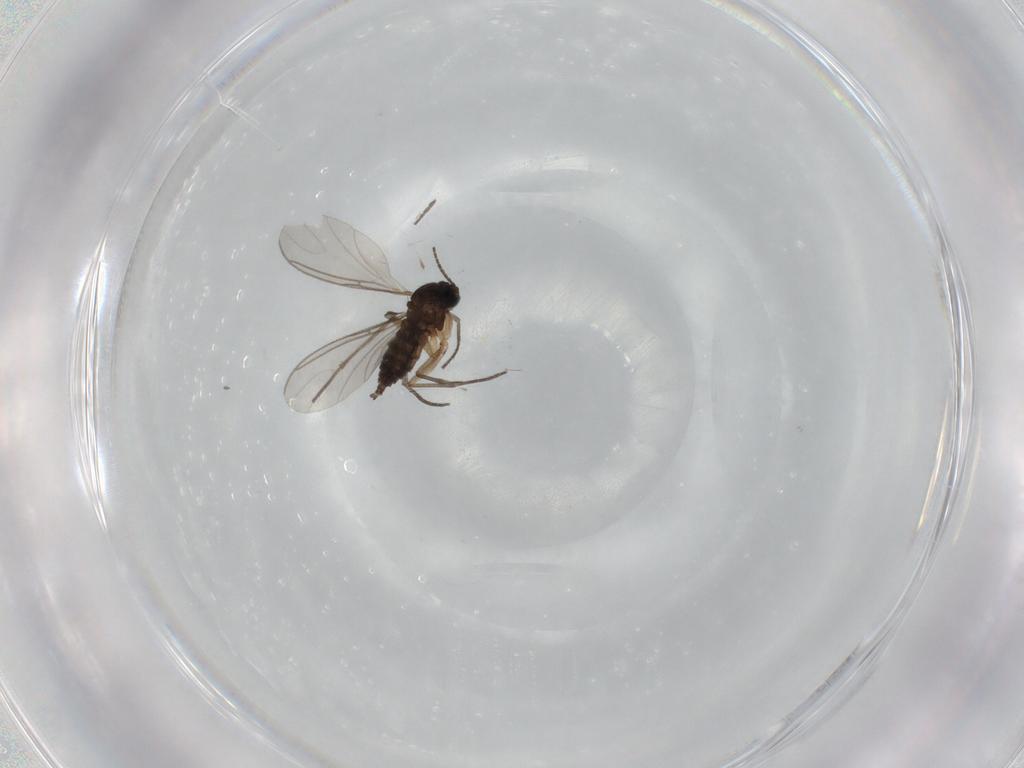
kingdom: Animalia
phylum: Arthropoda
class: Insecta
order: Diptera
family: Sciaridae
